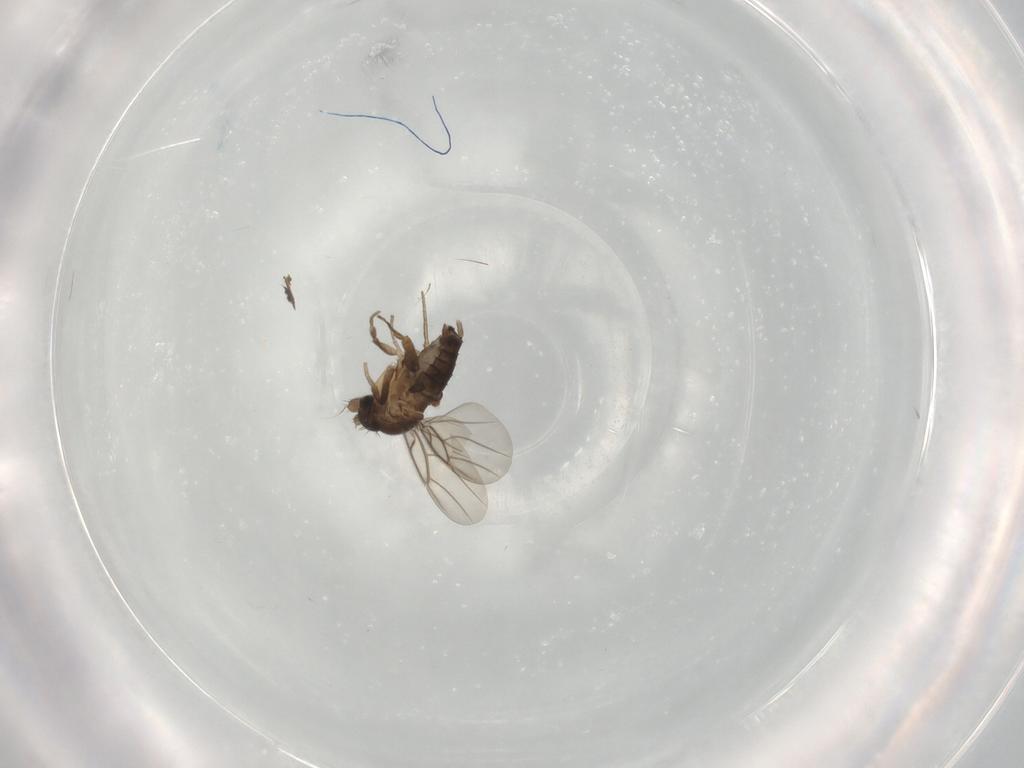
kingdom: Animalia
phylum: Arthropoda
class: Insecta
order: Diptera
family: Phoridae
